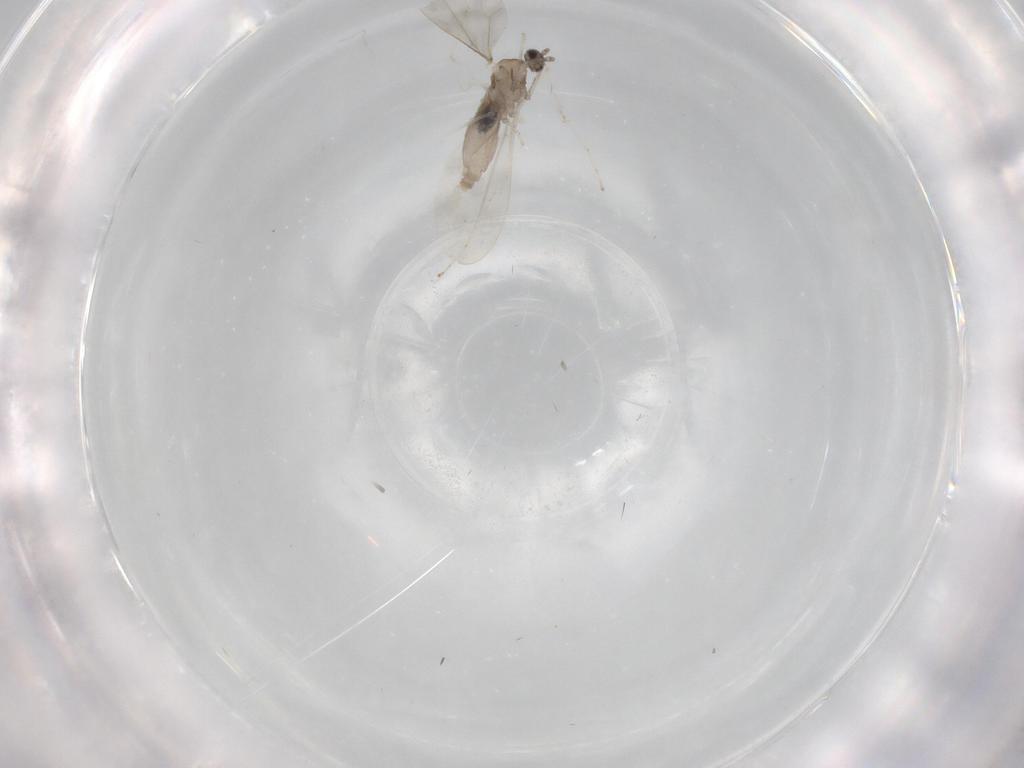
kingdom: Animalia
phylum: Arthropoda
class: Insecta
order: Diptera
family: Cecidomyiidae
